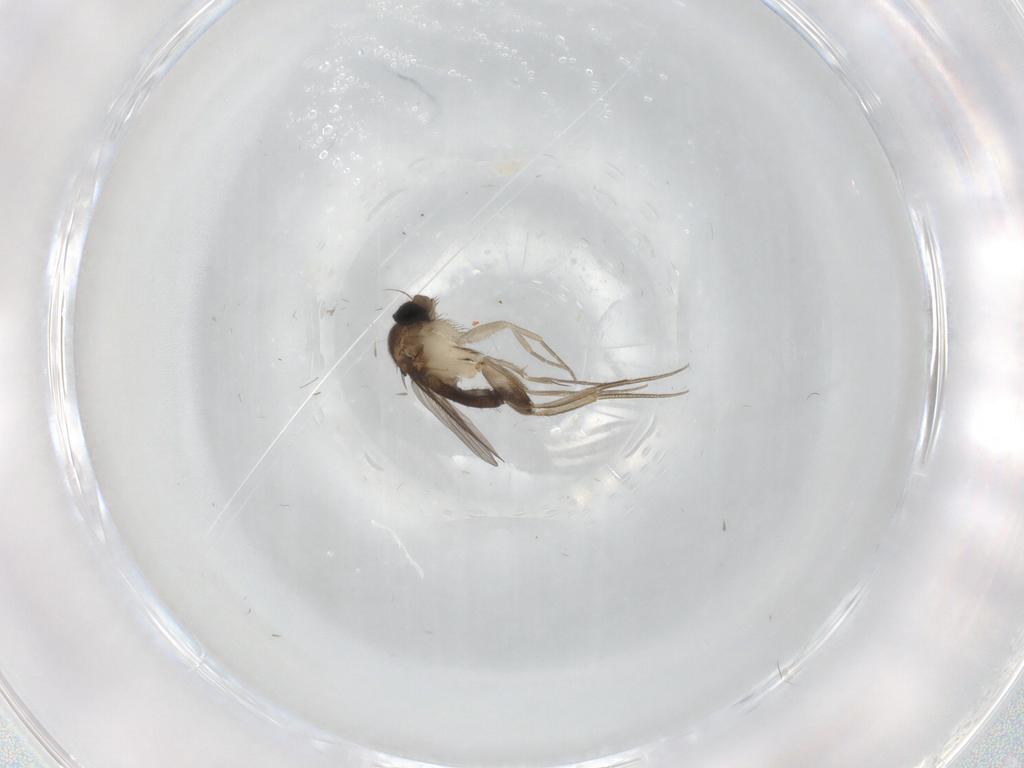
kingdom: Animalia
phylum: Arthropoda
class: Insecta
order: Diptera
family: Phoridae
